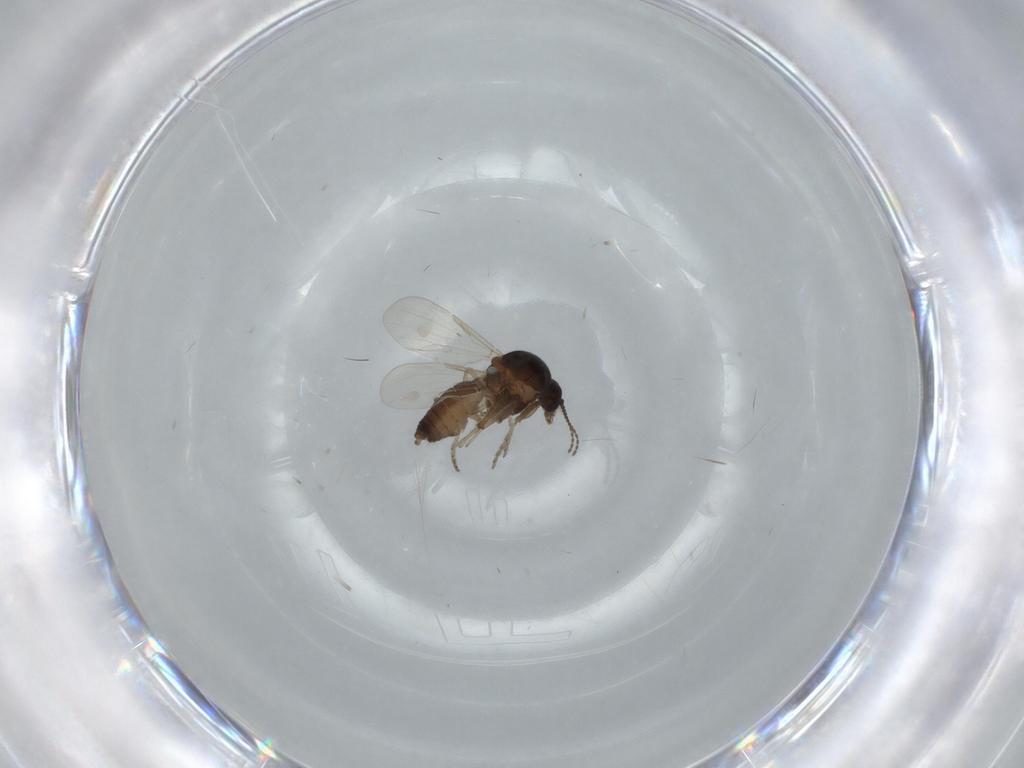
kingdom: Animalia
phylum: Arthropoda
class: Insecta
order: Diptera
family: Ceratopogonidae
